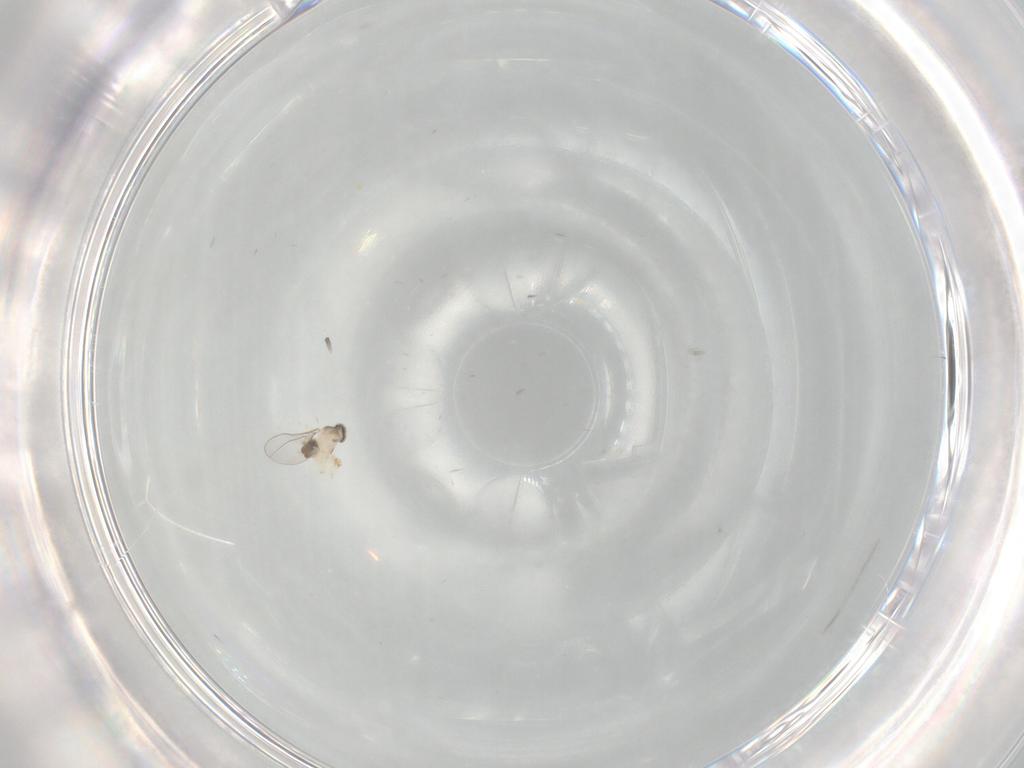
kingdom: Animalia
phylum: Arthropoda
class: Insecta
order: Diptera
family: Cecidomyiidae
